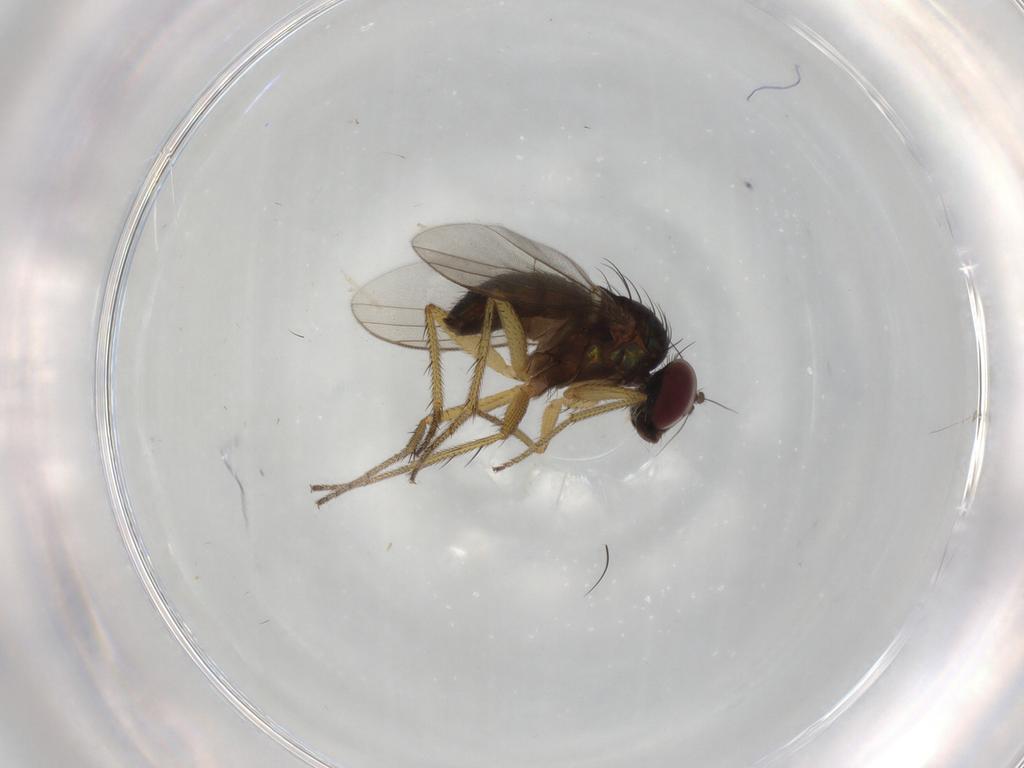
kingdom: Animalia
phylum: Arthropoda
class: Insecta
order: Diptera
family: Dolichopodidae
